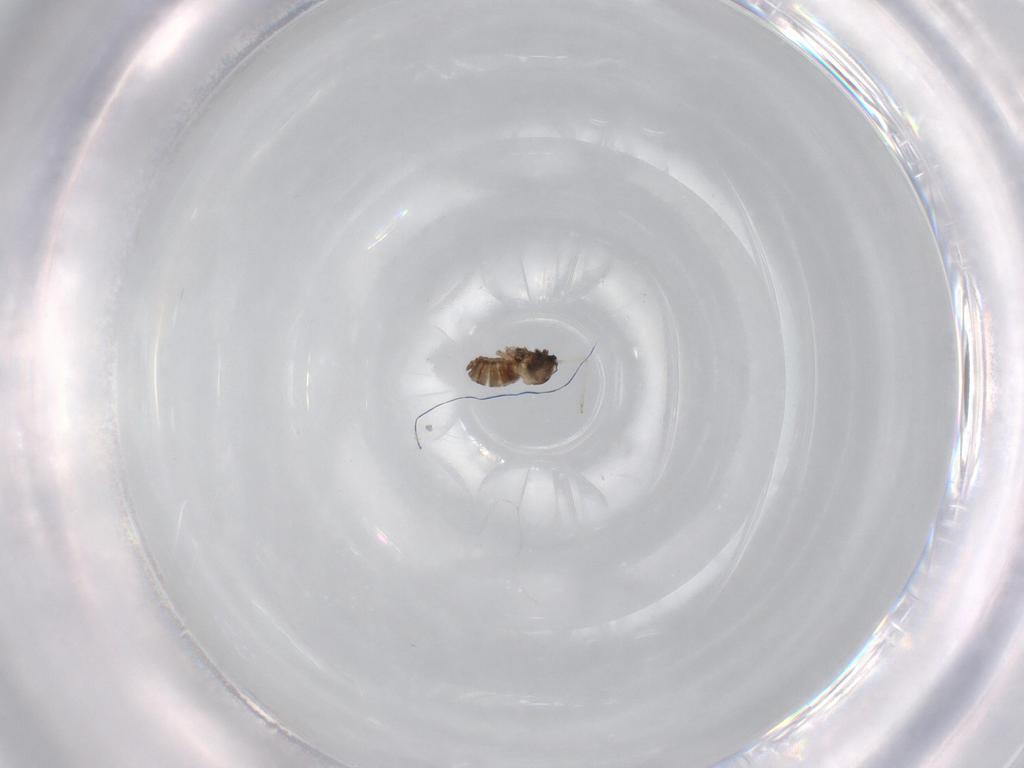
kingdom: Animalia
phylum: Arthropoda
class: Insecta
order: Diptera
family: Cecidomyiidae
